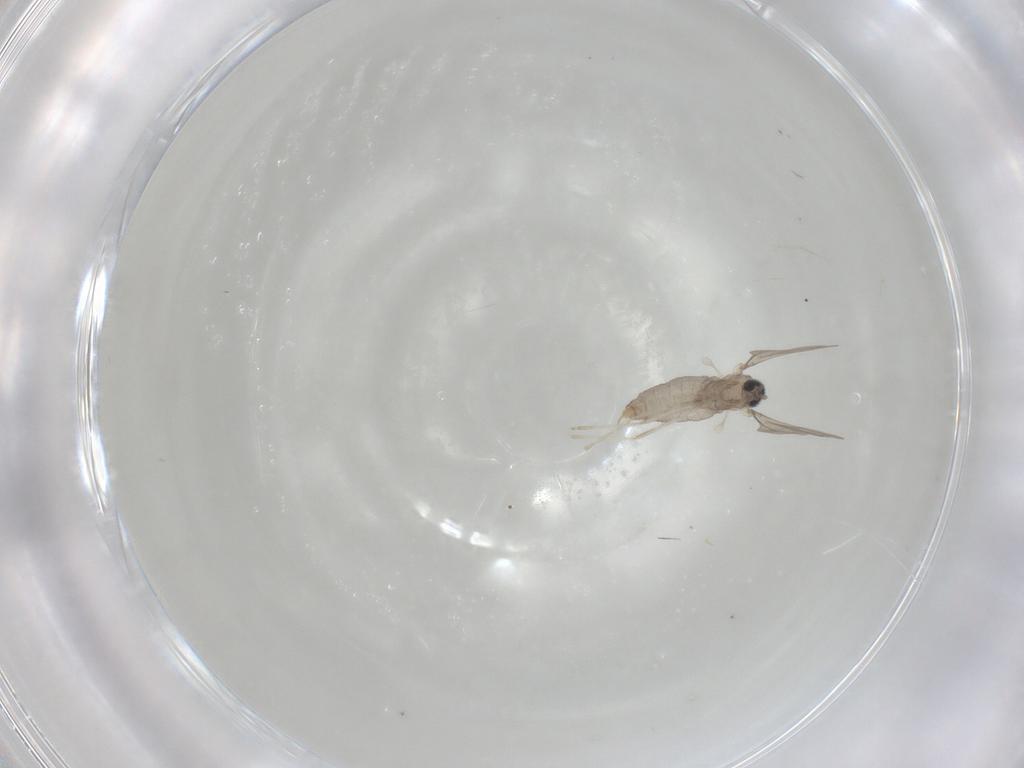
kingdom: Animalia
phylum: Arthropoda
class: Insecta
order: Diptera
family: Cecidomyiidae
